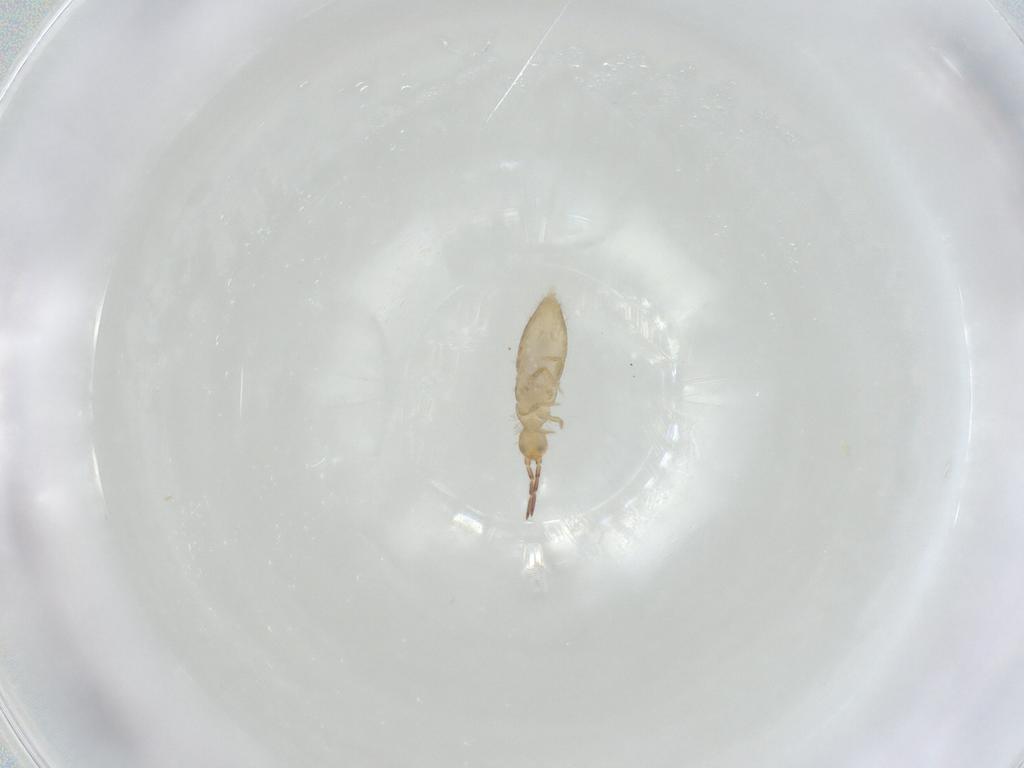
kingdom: Animalia
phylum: Arthropoda
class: Collembola
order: Entomobryomorpha
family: Entomobryidae
